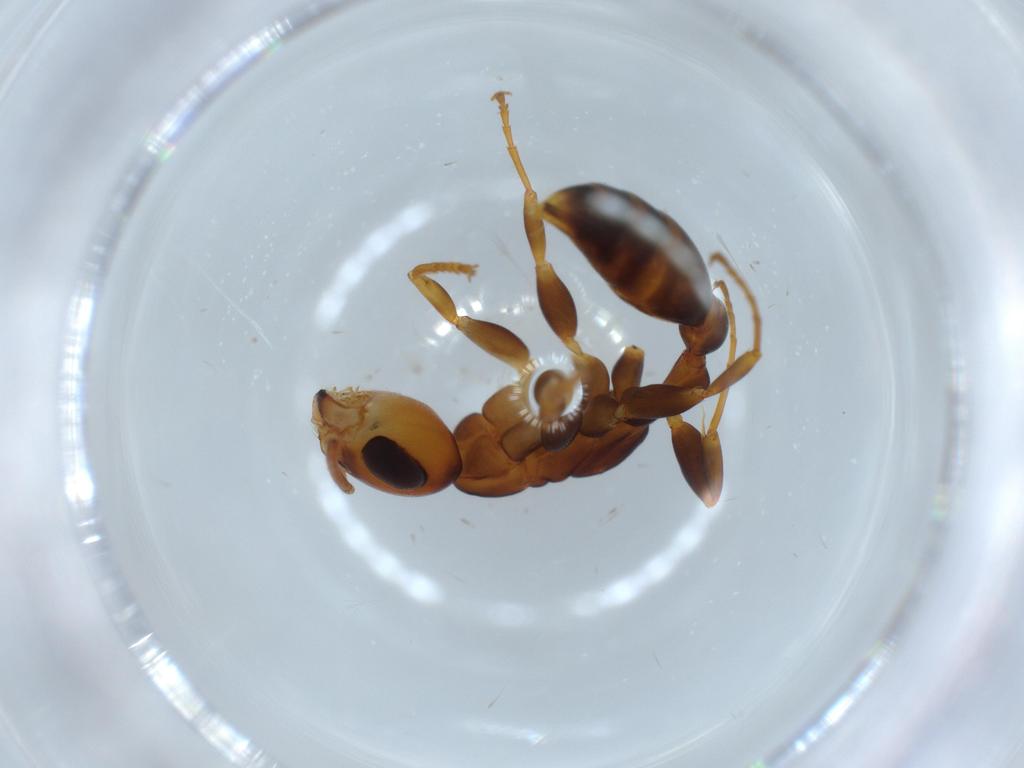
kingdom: Animalia
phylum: Arthropoda
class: Insecta
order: Hymenoptera
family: Formicidae
